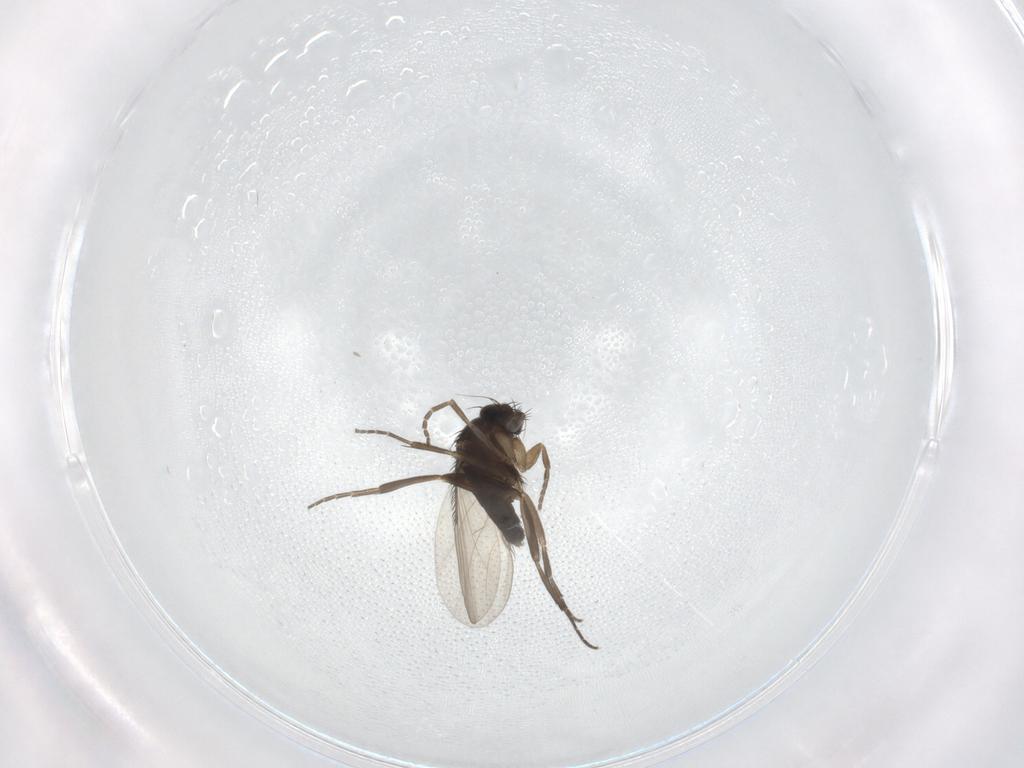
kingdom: Animalia
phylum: Arthropoda
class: Insecta
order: Diptera
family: Phoridae
